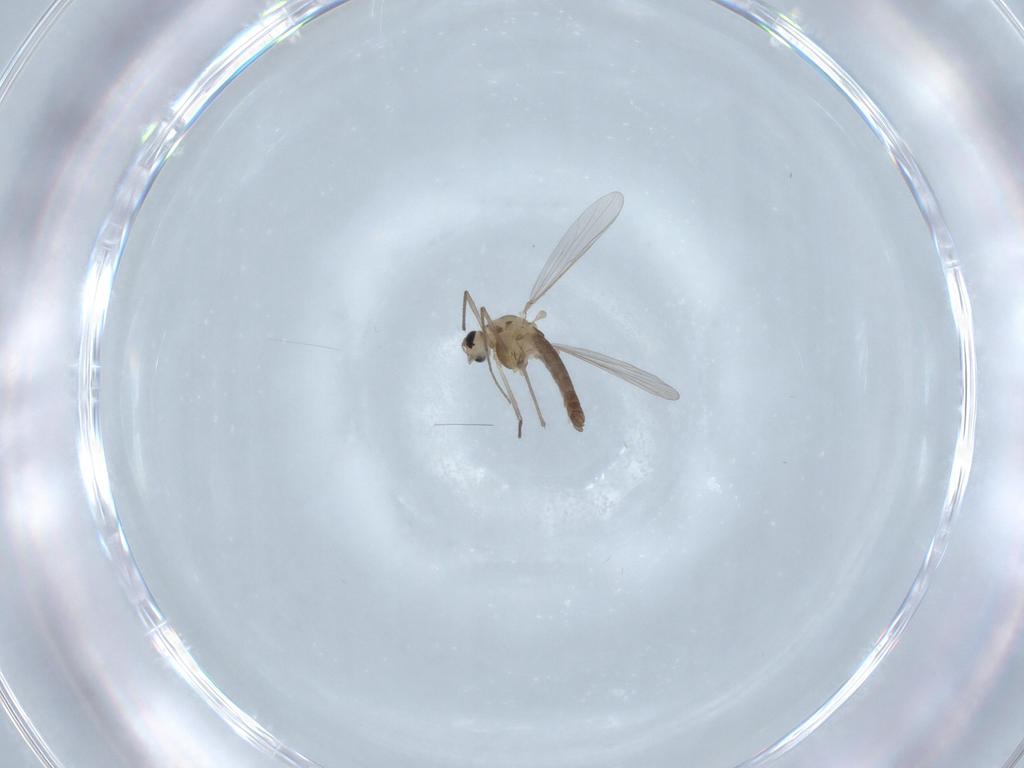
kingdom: Animalia
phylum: Arthropoda
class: Insecta
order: Diptera
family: Chironomidae
